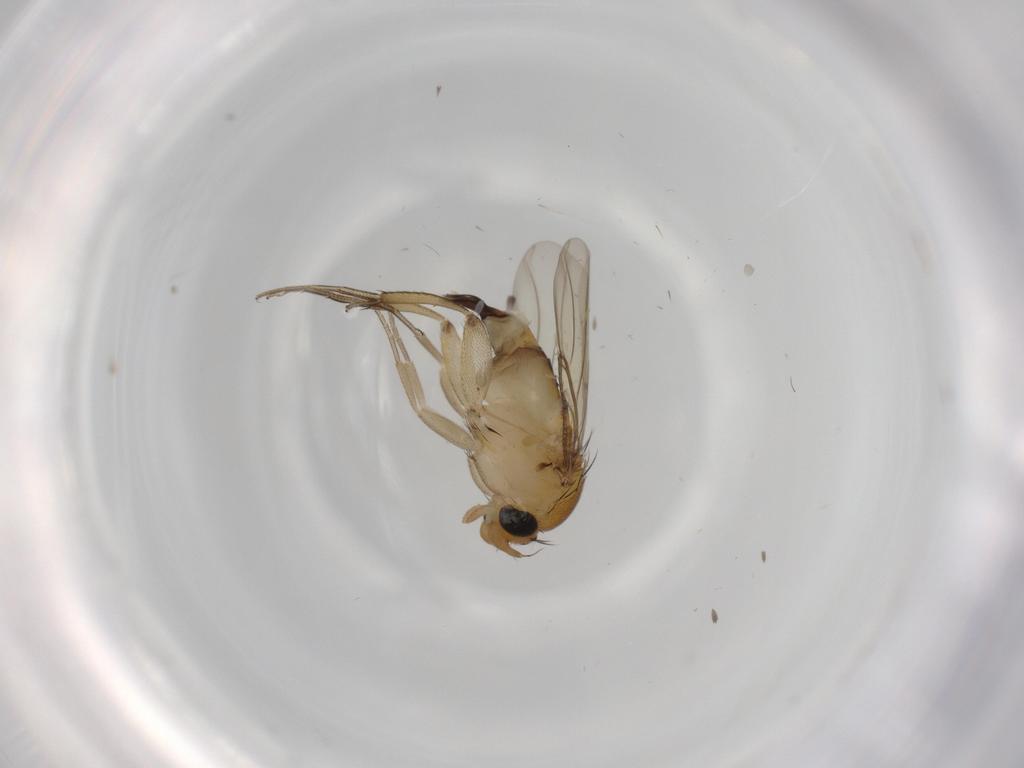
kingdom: Animalia
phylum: Arthropoda
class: Insecta
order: Diptera
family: Phoridae
